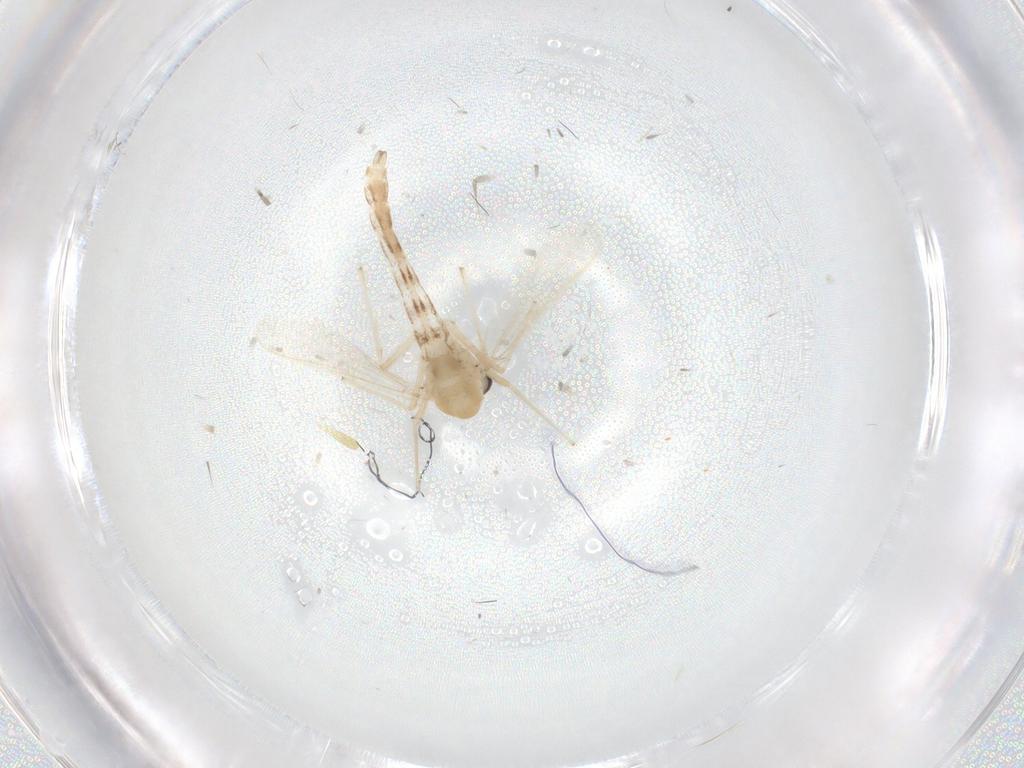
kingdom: Animalia
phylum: Arthropoda
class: Insecta
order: Diptera
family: Chironomidae
